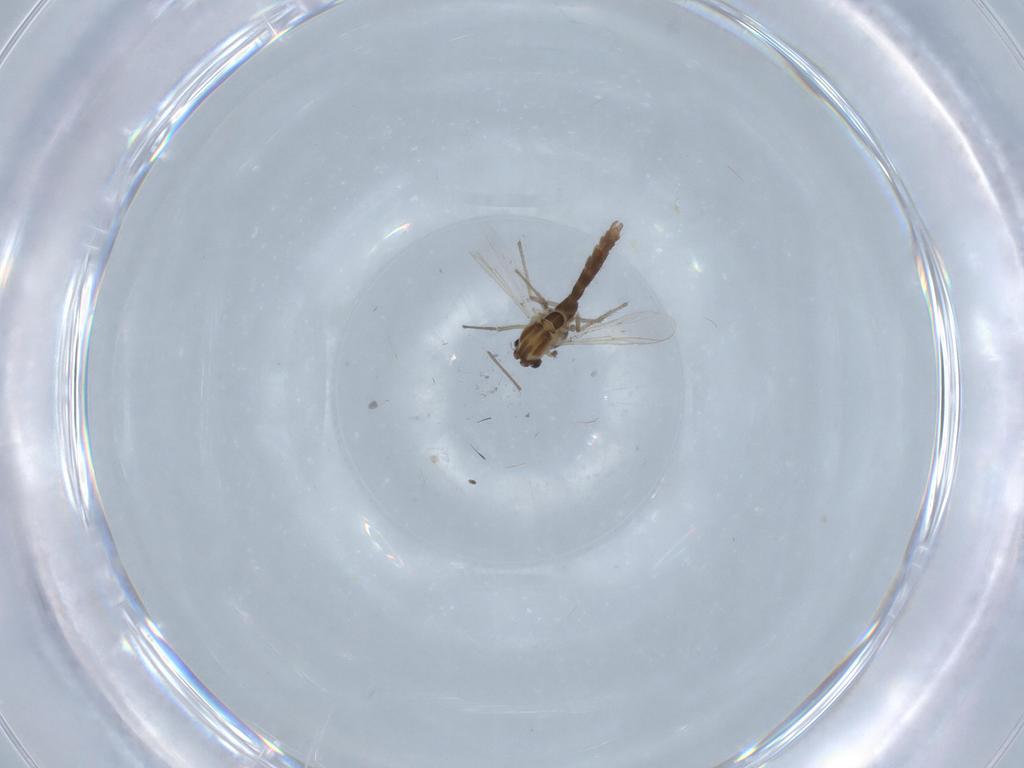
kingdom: Animalia
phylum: Arthropoda
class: Insecta
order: Diptera
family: Chironomidae
